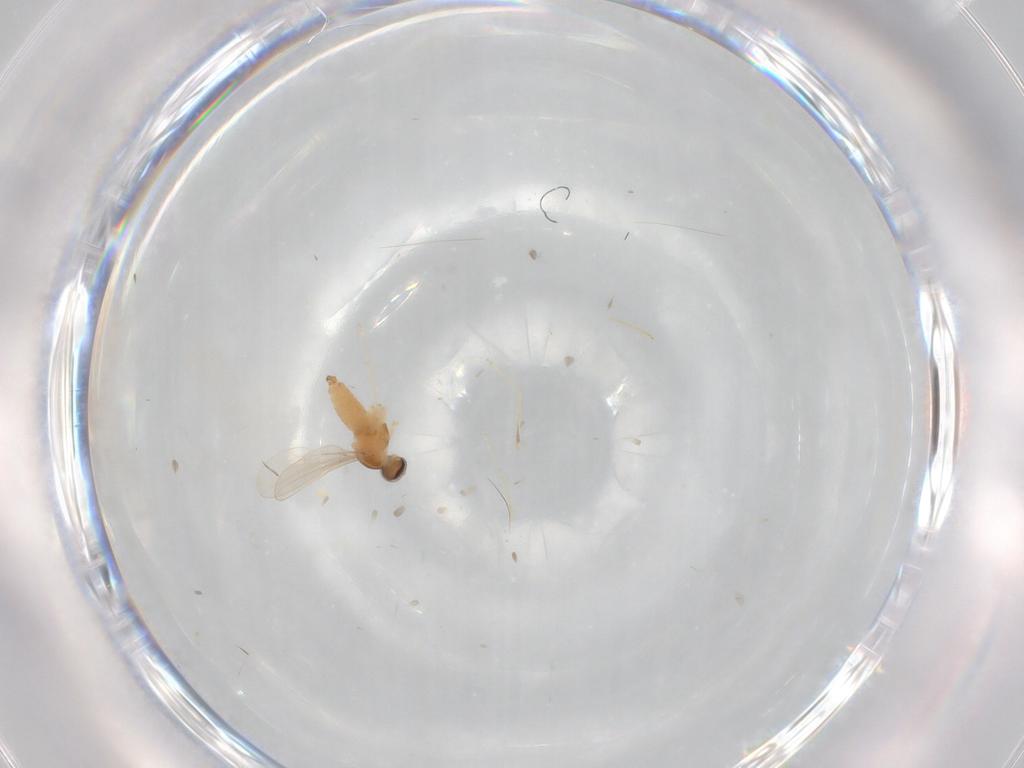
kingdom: Animalia
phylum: Arthropoda
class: Insecta
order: Diptera
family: Cecidomyiidae
